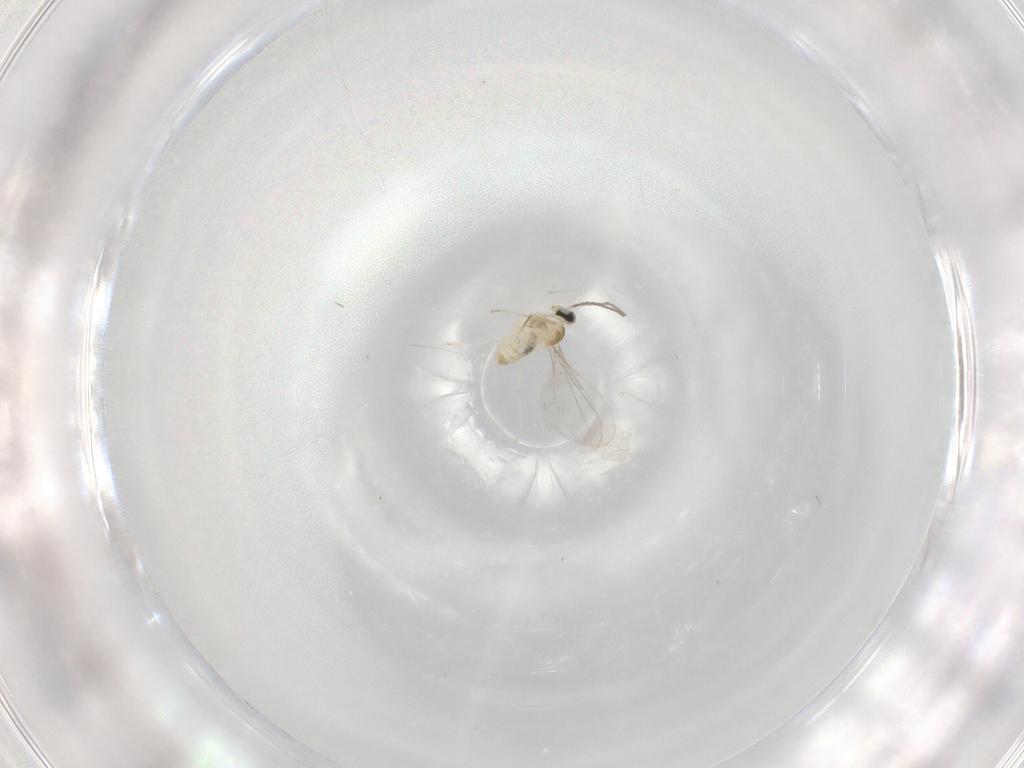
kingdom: Animalia
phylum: Arthropoda
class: Insecta
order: Diptera
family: Cecidomyiidae
